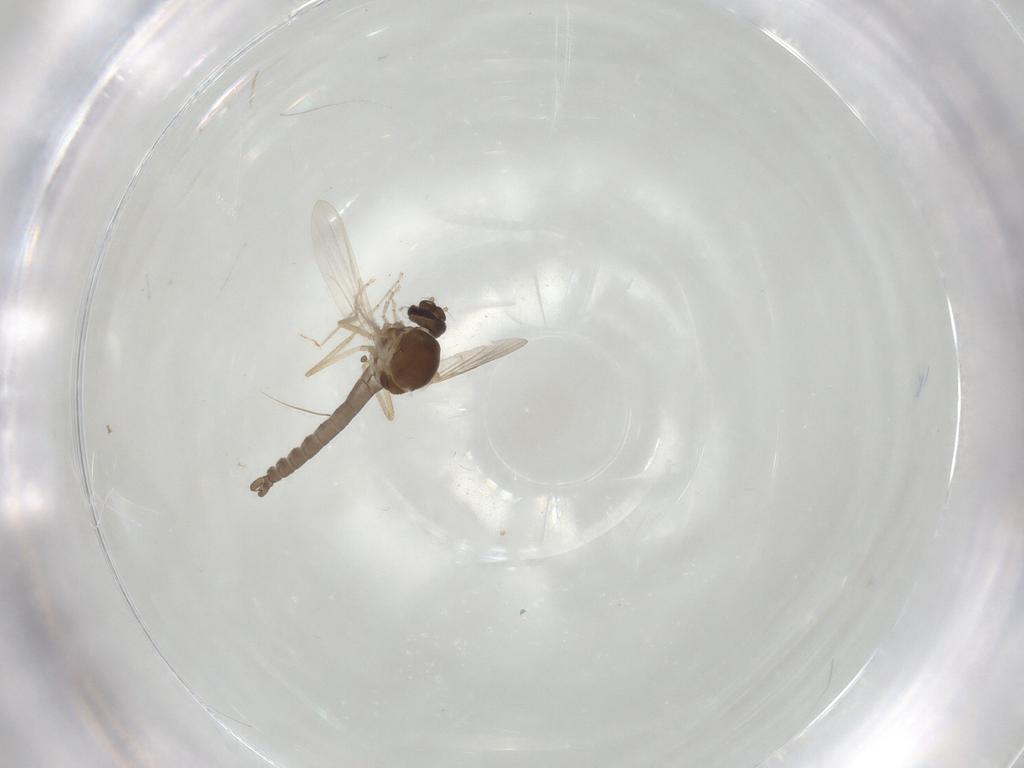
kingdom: Animalia
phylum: Arthropoda
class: Insecta
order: Diptera
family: Ceratopogonidae
